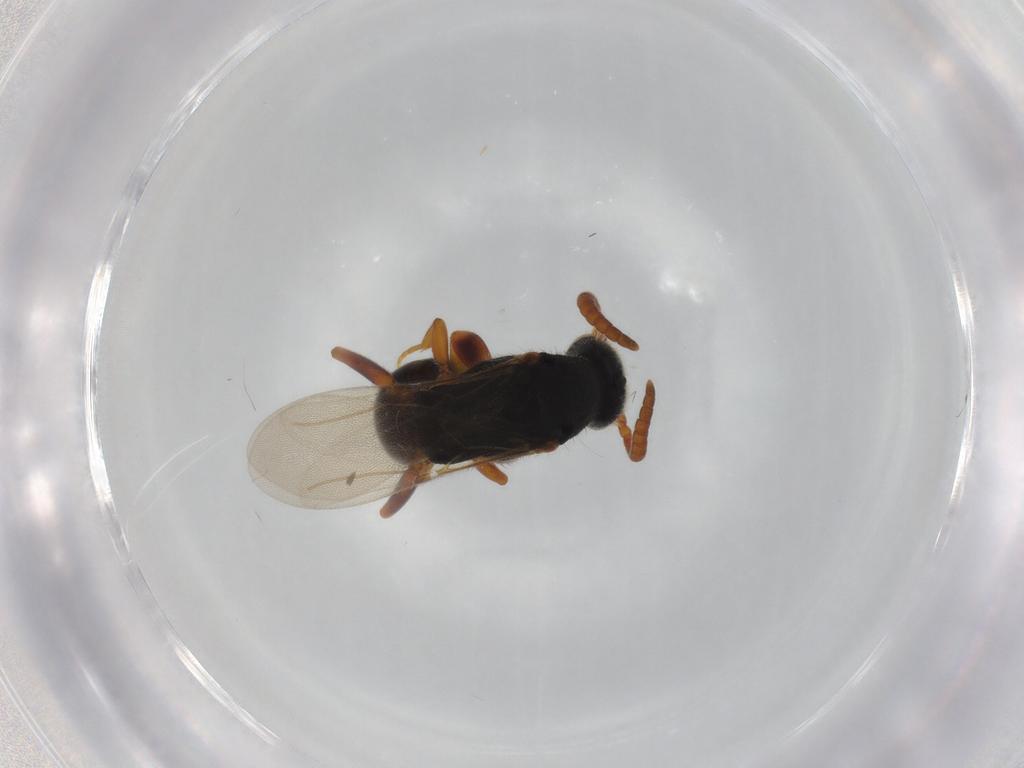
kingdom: Animalia
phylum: Arthropoda
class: Insecta
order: Hymenoptera
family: Bethylidae
